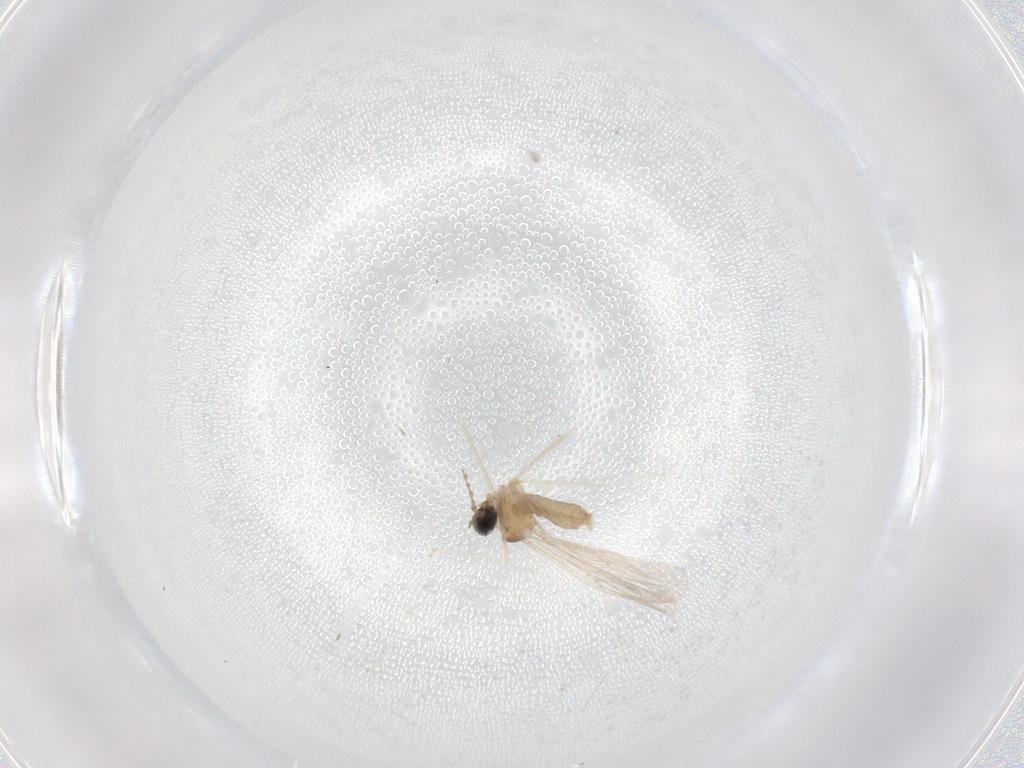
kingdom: Animalia
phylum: Arthropoda
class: Insecta
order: Diptera
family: Cecidomyiidae
